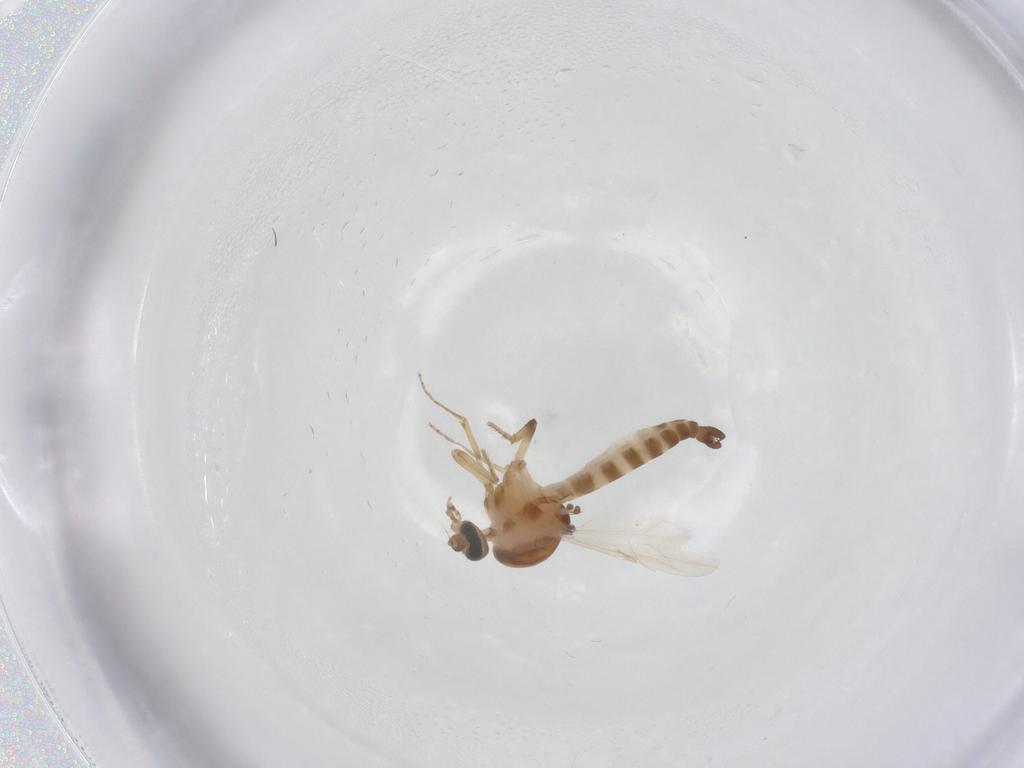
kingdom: Animalia
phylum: Arthropoda
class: Insecta
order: Diptera
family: Ceratopogonidae
